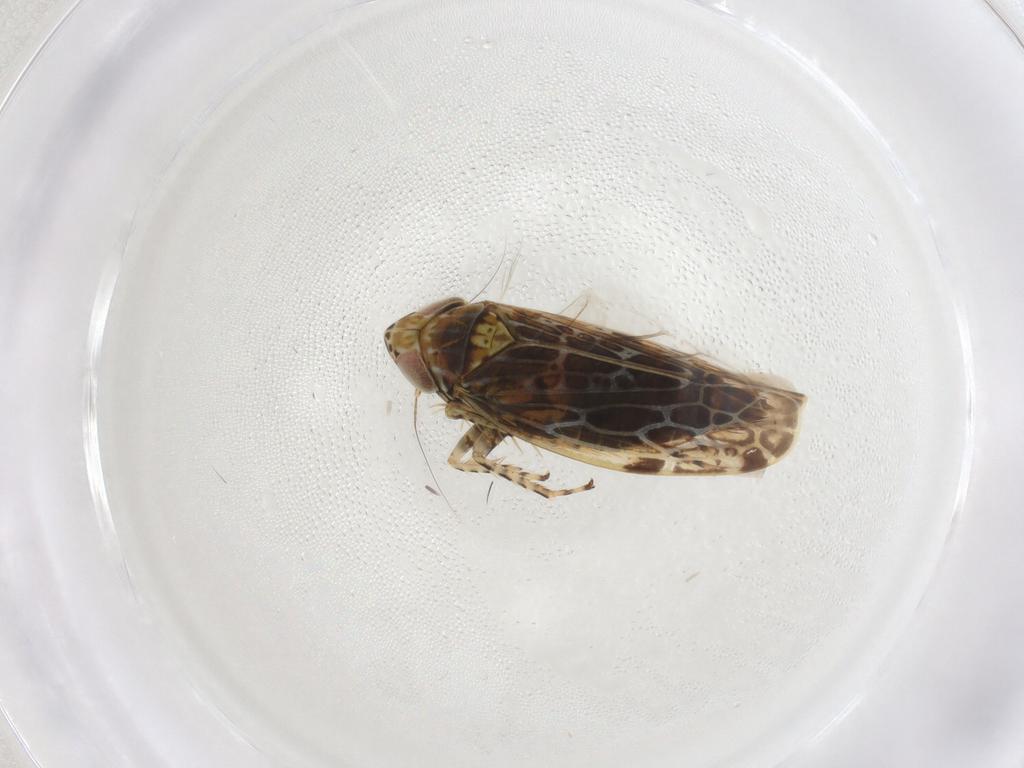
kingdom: Animalia
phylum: Arthropoda
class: Insecta
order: Hemiptera
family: Cicadellidae
